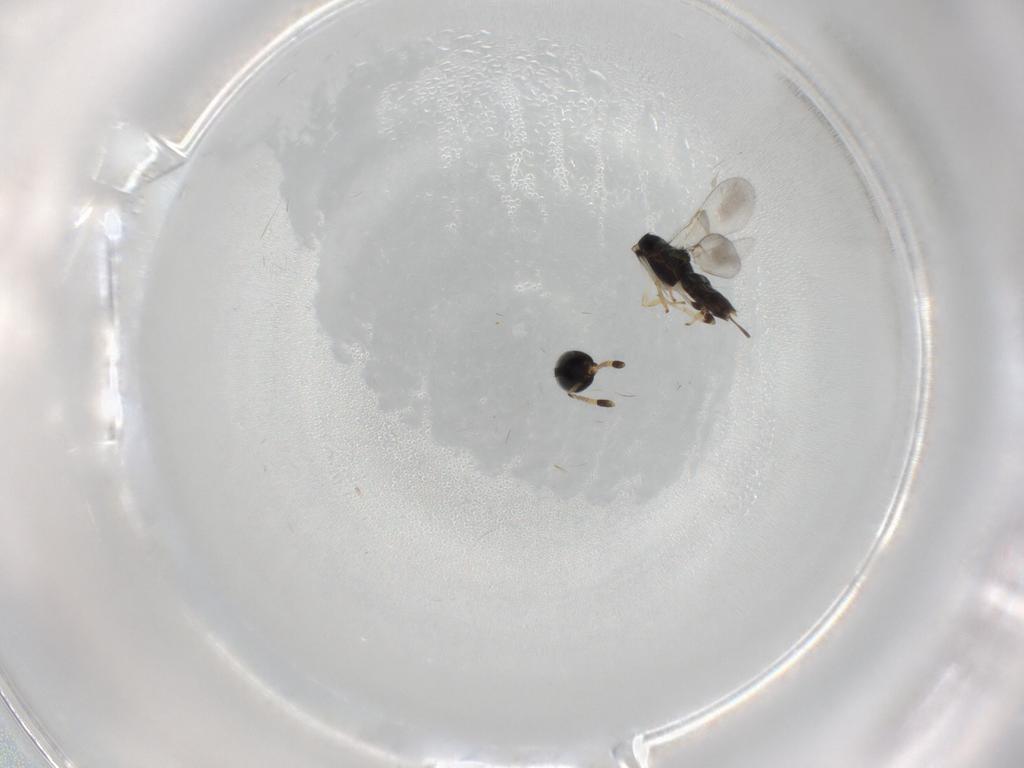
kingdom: Animalia
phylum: Arthropoda
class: Insecta
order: Hymenoptera
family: Encyrtidae
